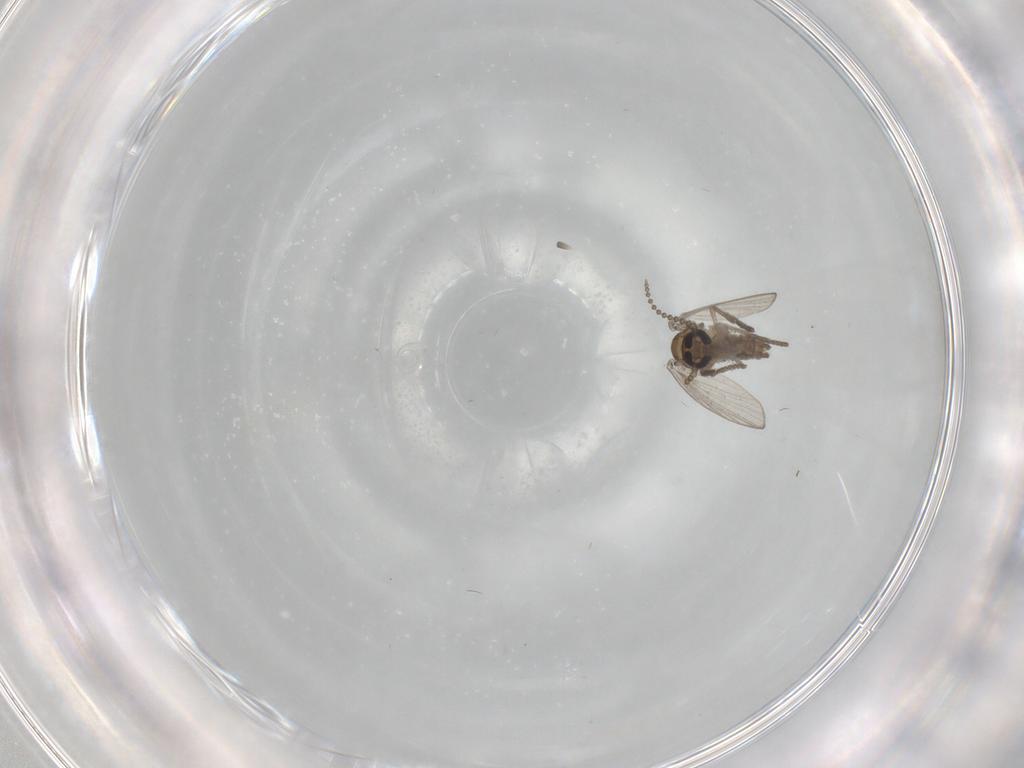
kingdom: Animalia
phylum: Arthropoda
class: Insecta
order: Diptera
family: Psychodidae
